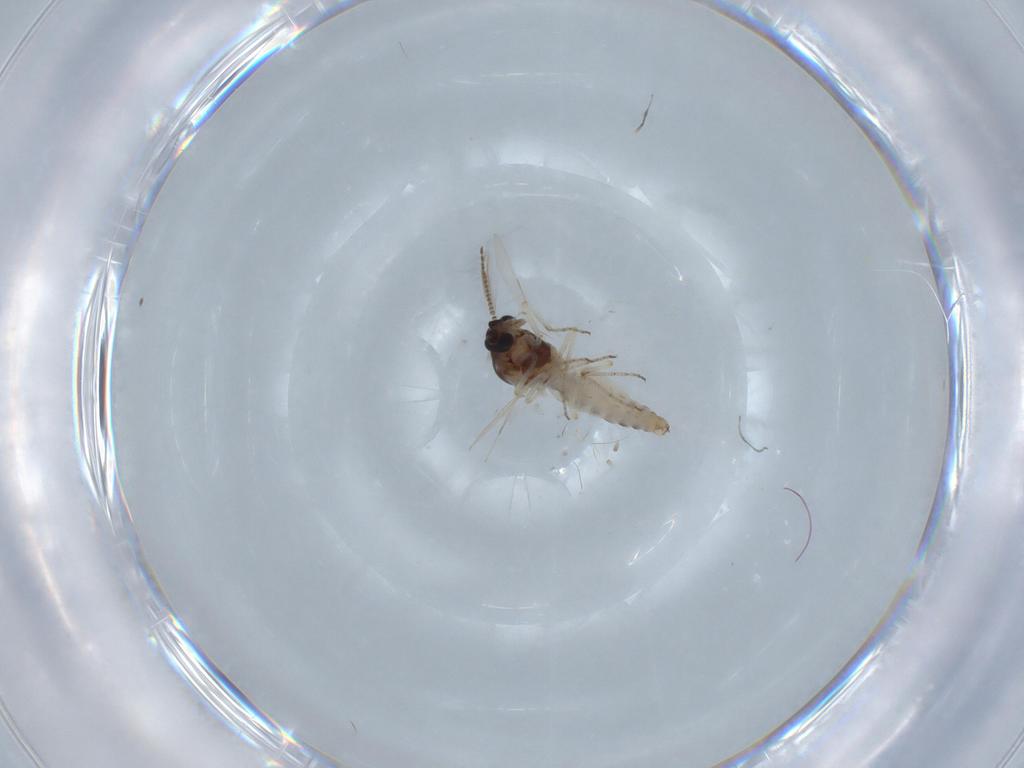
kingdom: Animalia
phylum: Arthropoda
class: Insecta
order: Diptera
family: Ceratopogonidae
